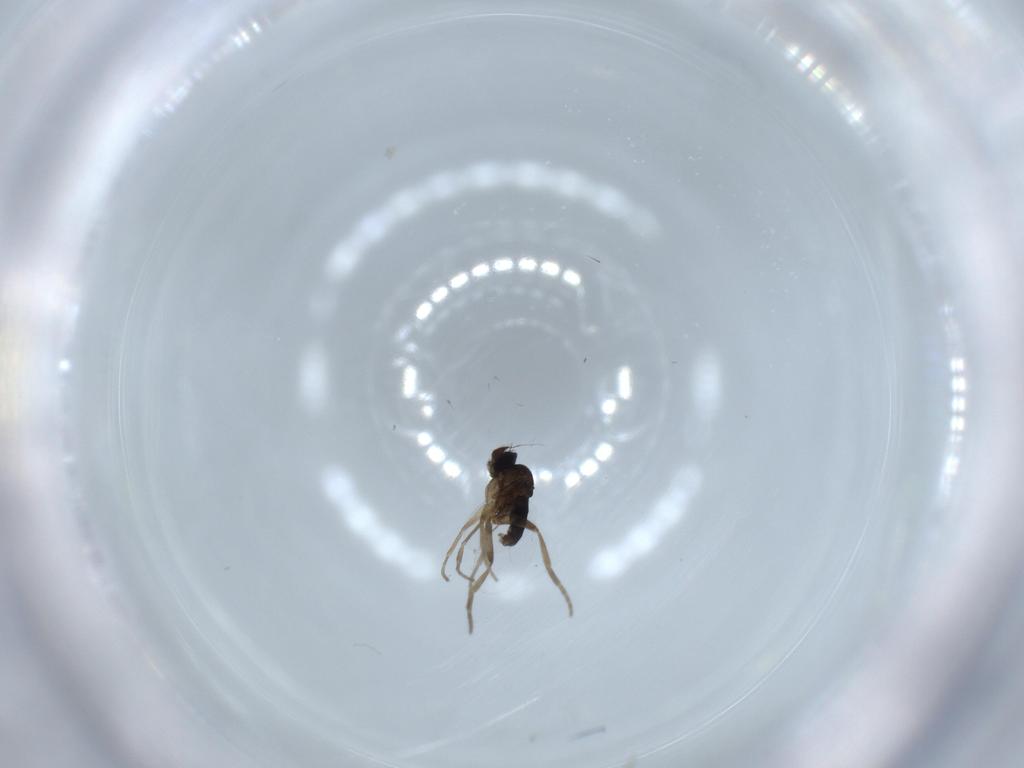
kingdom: Animalia
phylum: Arthropoda
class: Insecta
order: Diptera
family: Phoridae
